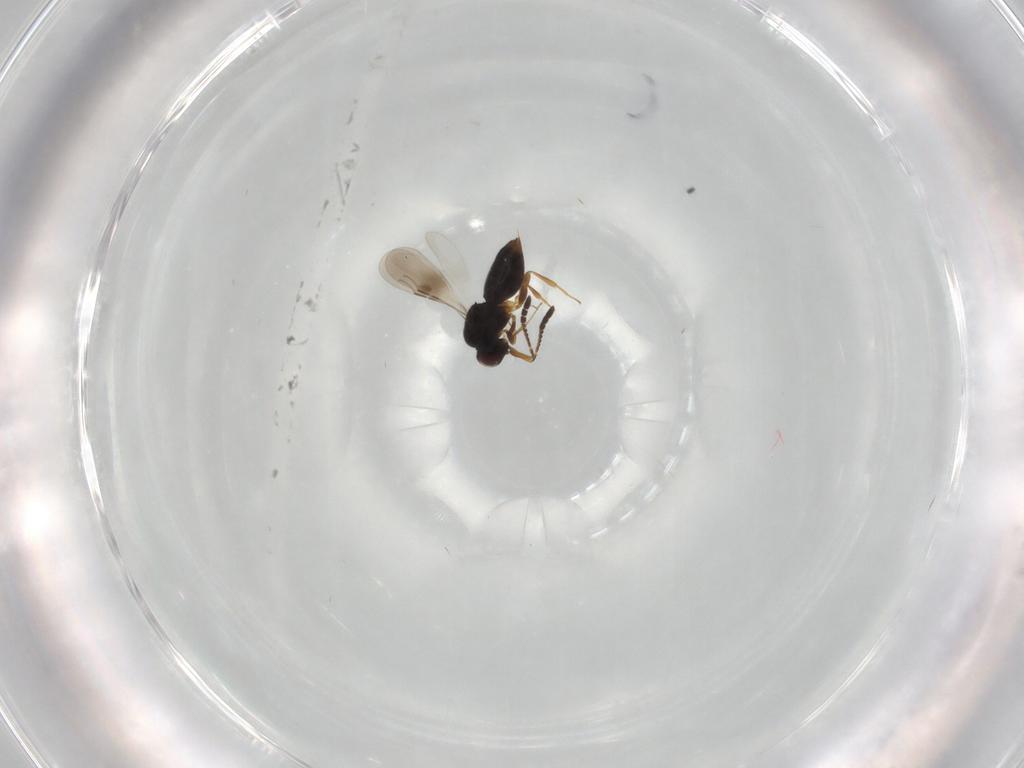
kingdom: Animalia
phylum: Arthropoda
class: Insecta
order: Hymenoptera
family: Ceraphronidae
